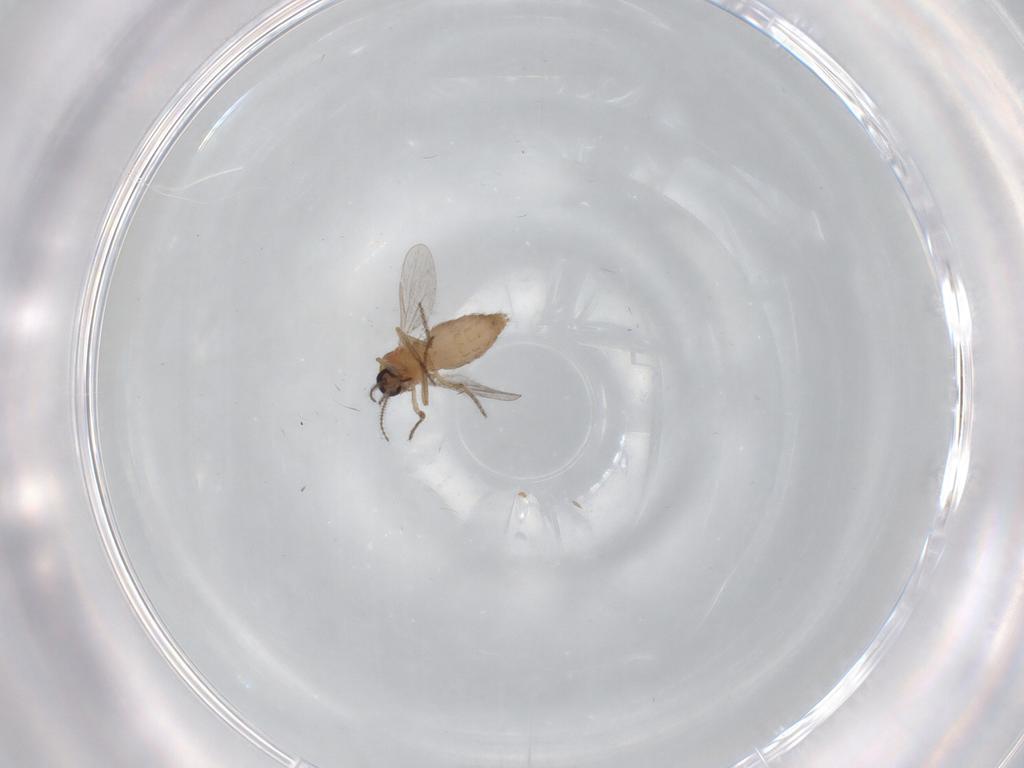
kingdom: Animalia
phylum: Arthropoda
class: Insecta
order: Diptera
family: Ceratopogonidae
